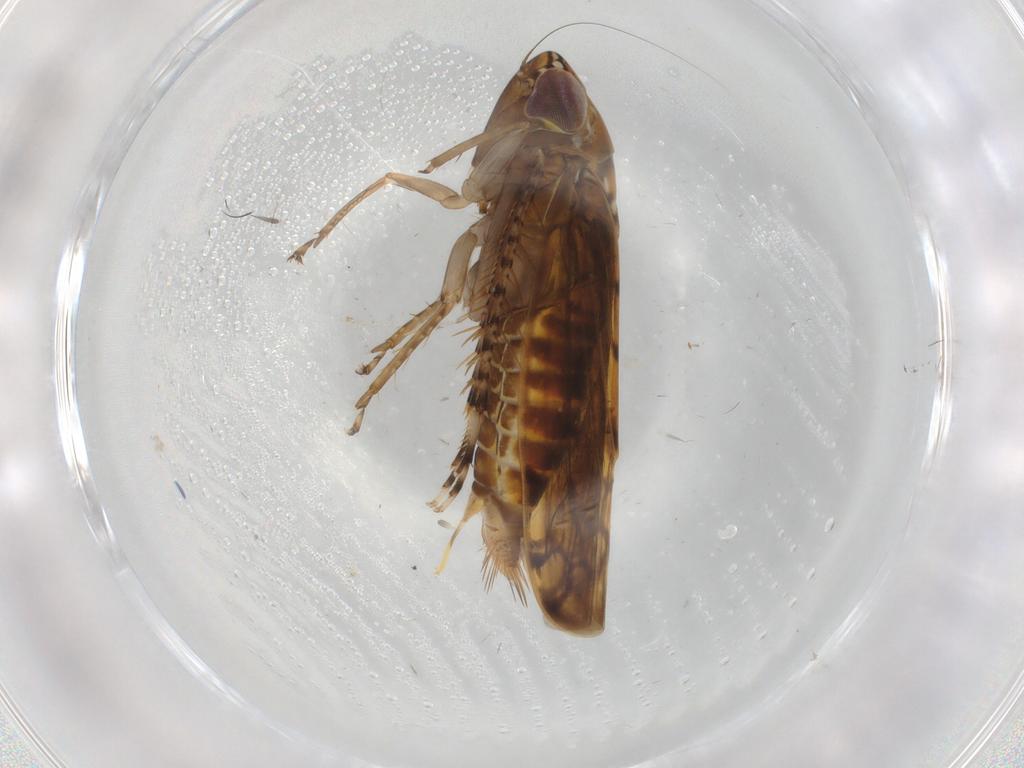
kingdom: Animalia
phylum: Arthropoda
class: Insecta
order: Hemiptera
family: Cicadellidae
